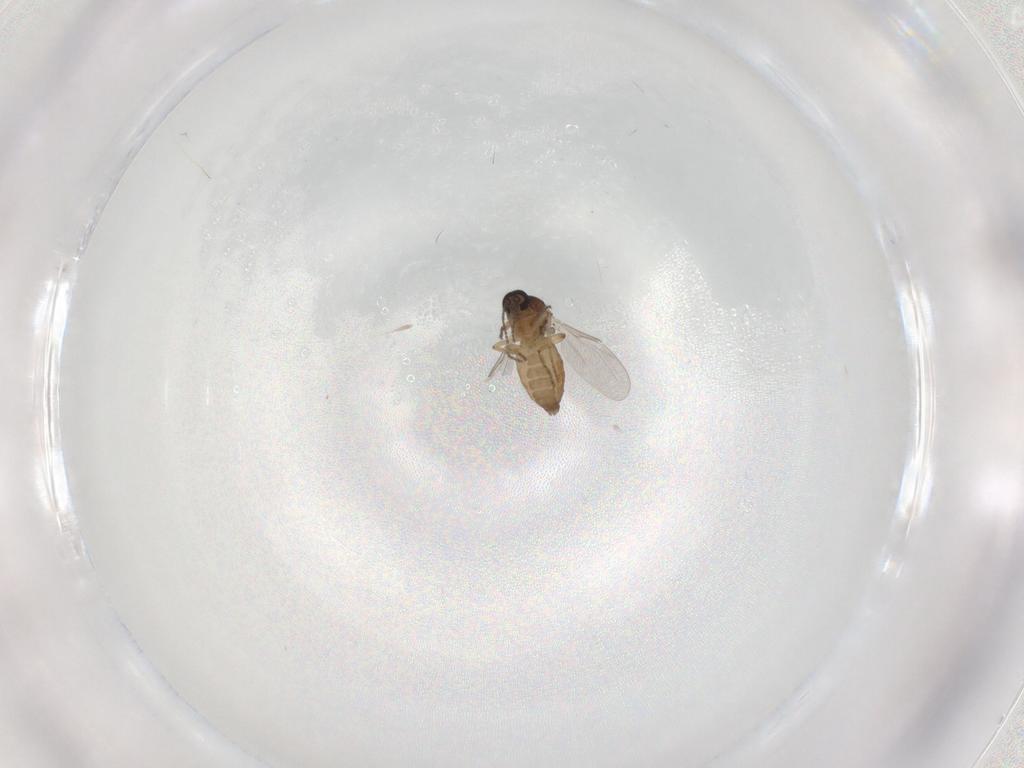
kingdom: Animalia
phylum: Arthropoda
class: Insecta
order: Diptera
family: Ceratopogonidae
